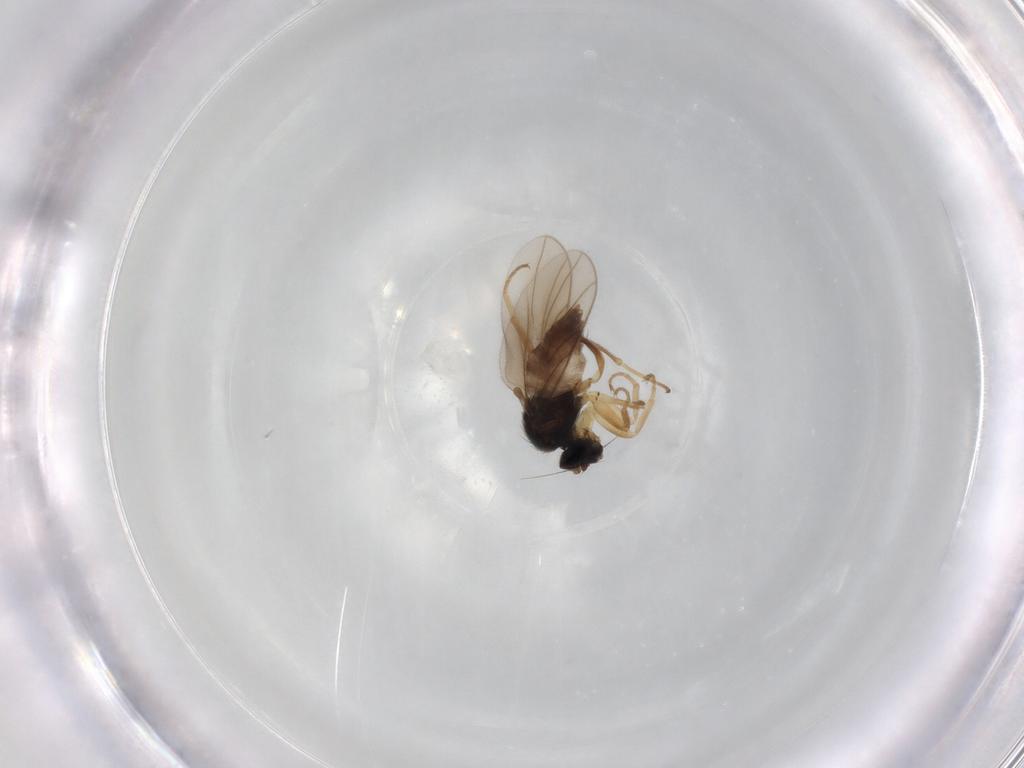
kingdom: Animalia
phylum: Arthropoda
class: Insecta
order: Diptera
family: Hybotidae
